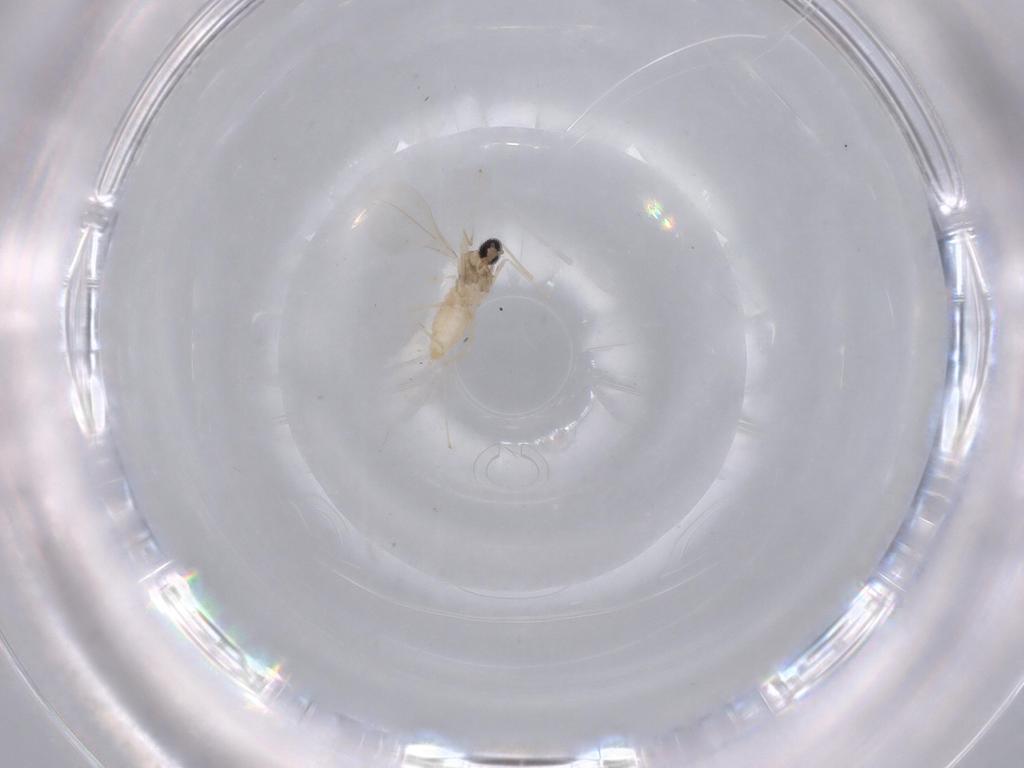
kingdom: Animalia
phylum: Arthropoda
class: Insecta
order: Diptera
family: Cecidomyiidae
